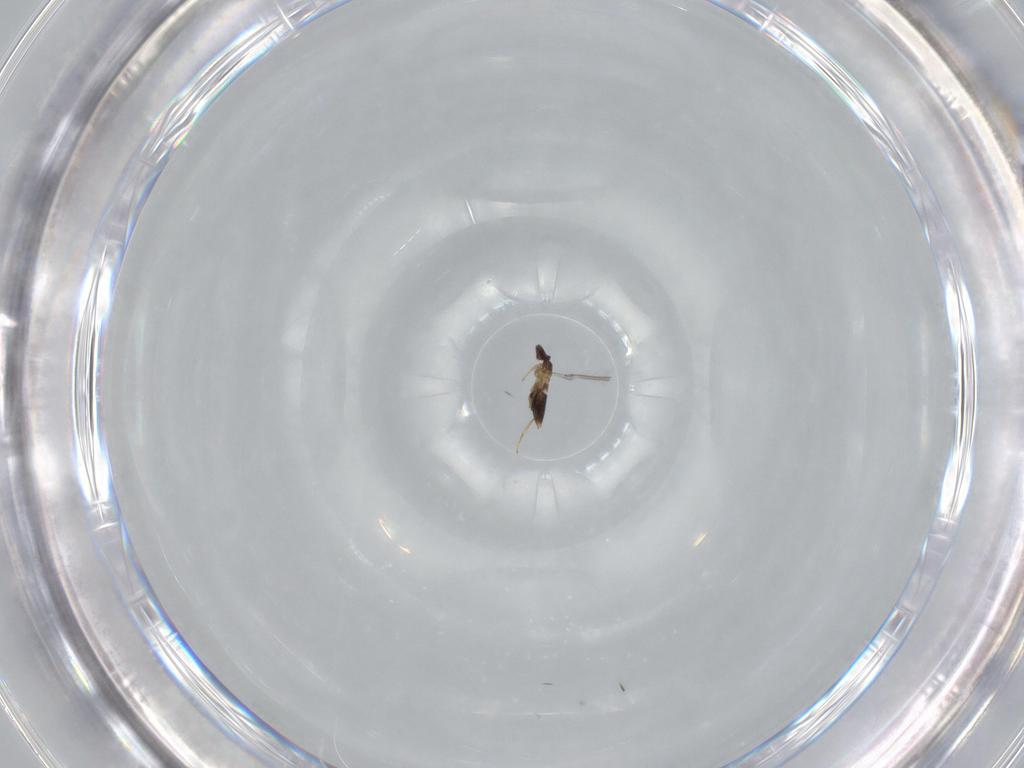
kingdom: Animalia
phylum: Arthropoda
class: Insecta
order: Hymenoptera
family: Mymaridae
